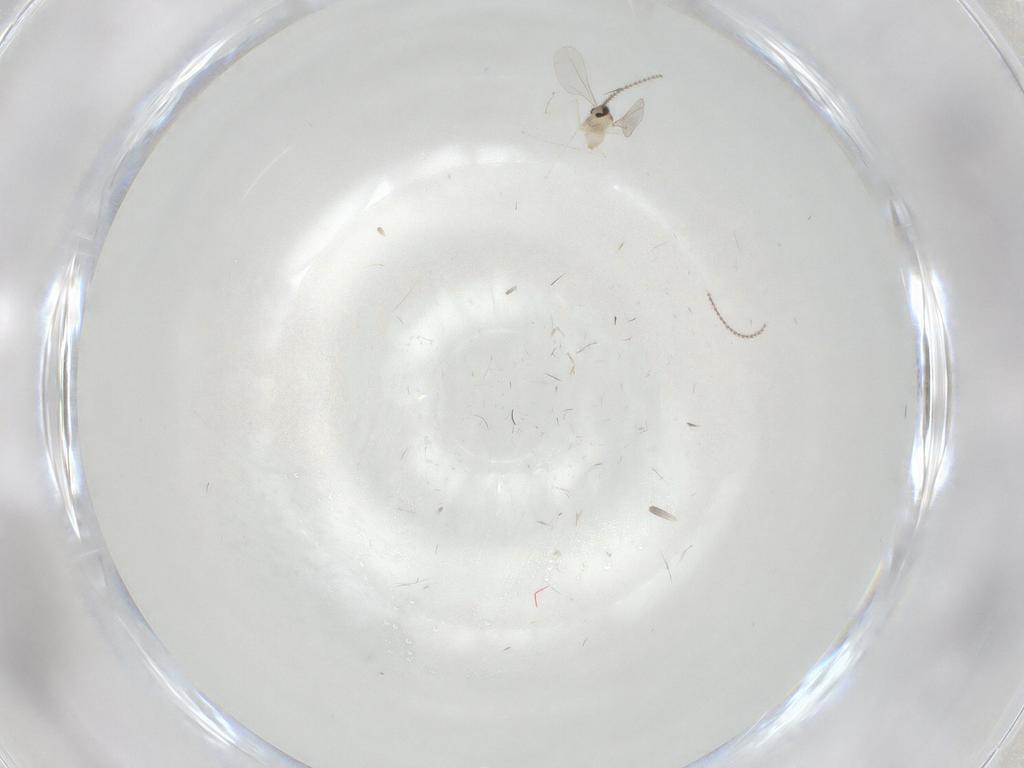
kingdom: Animalia
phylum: Arthropoda
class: Insecta
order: Diptera
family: Cecidomyiidae
